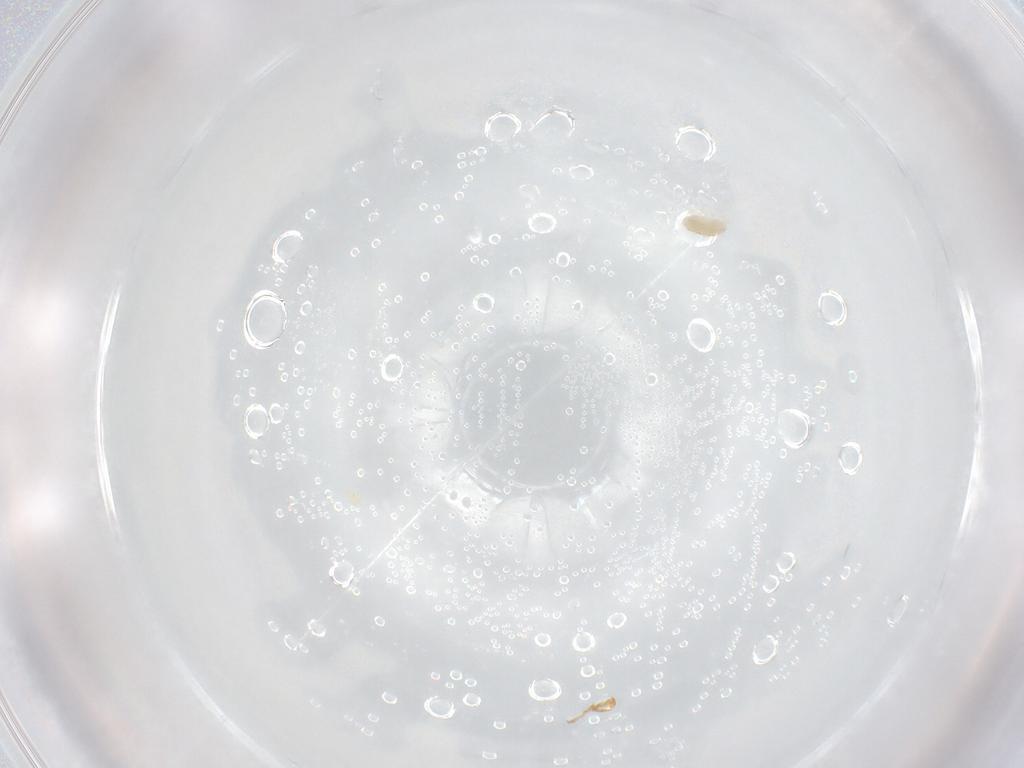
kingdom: Animalia
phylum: Arthropoda
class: Arachnida
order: Trombidiformes
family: Eupodidae
